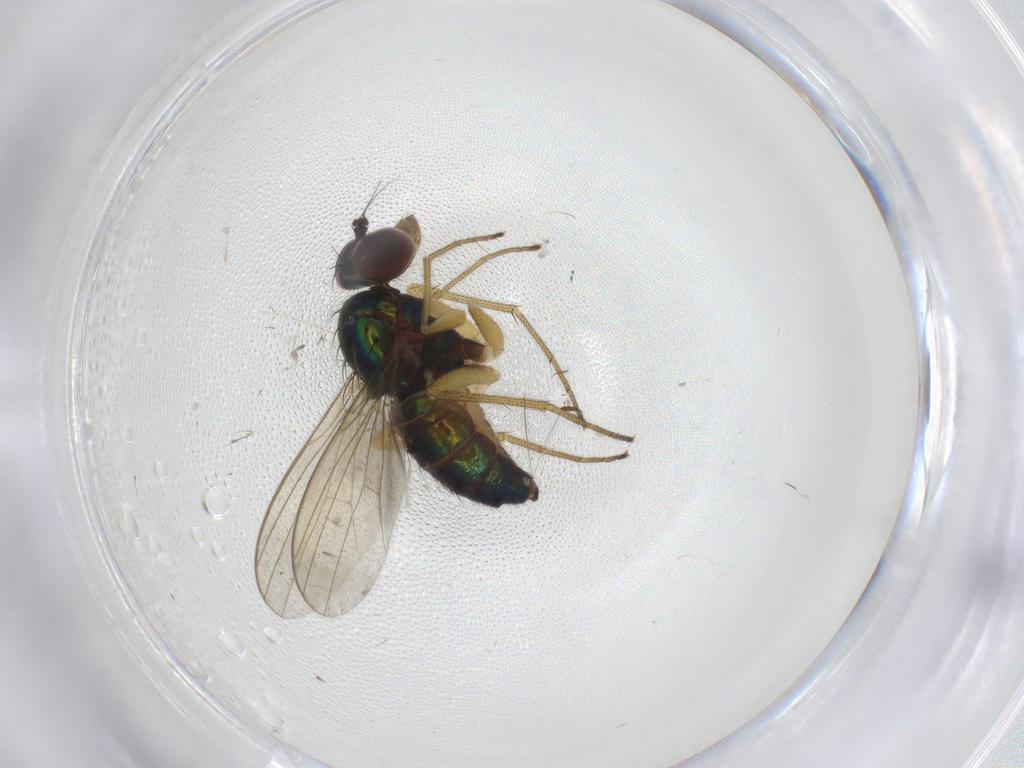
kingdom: Animalia
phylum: Arthropoda
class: Insecta
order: Diptera
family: Dolichopodidae
